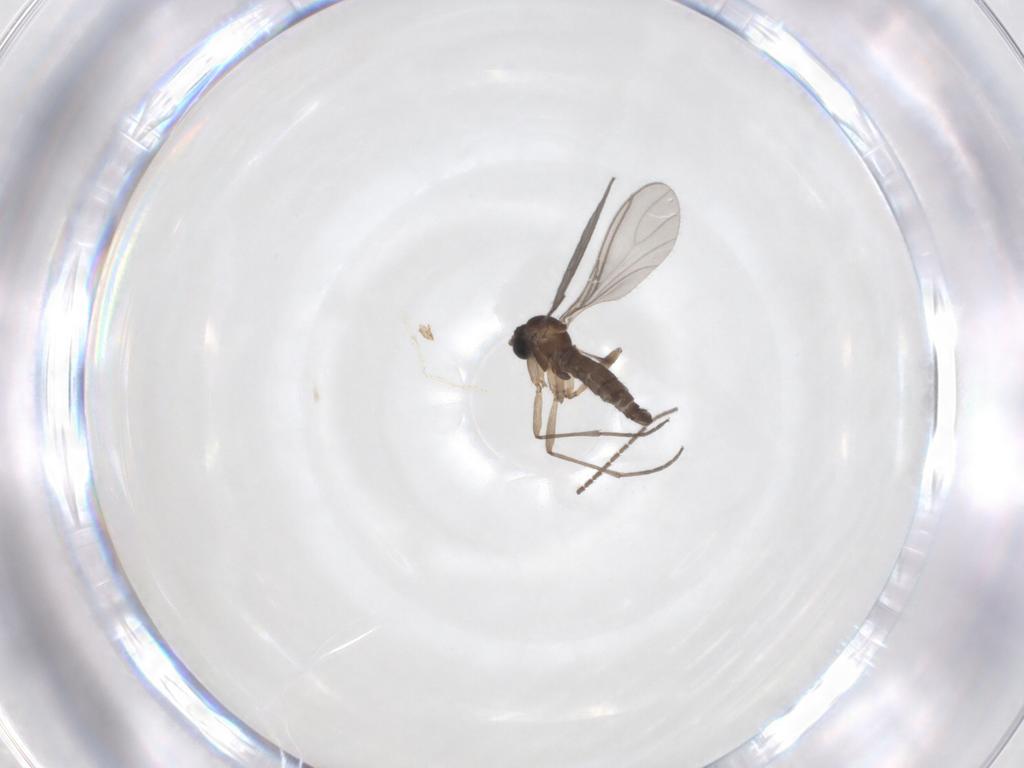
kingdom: Animalia
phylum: Arthropoda
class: Insecta
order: Diptera
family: Sciaridae
